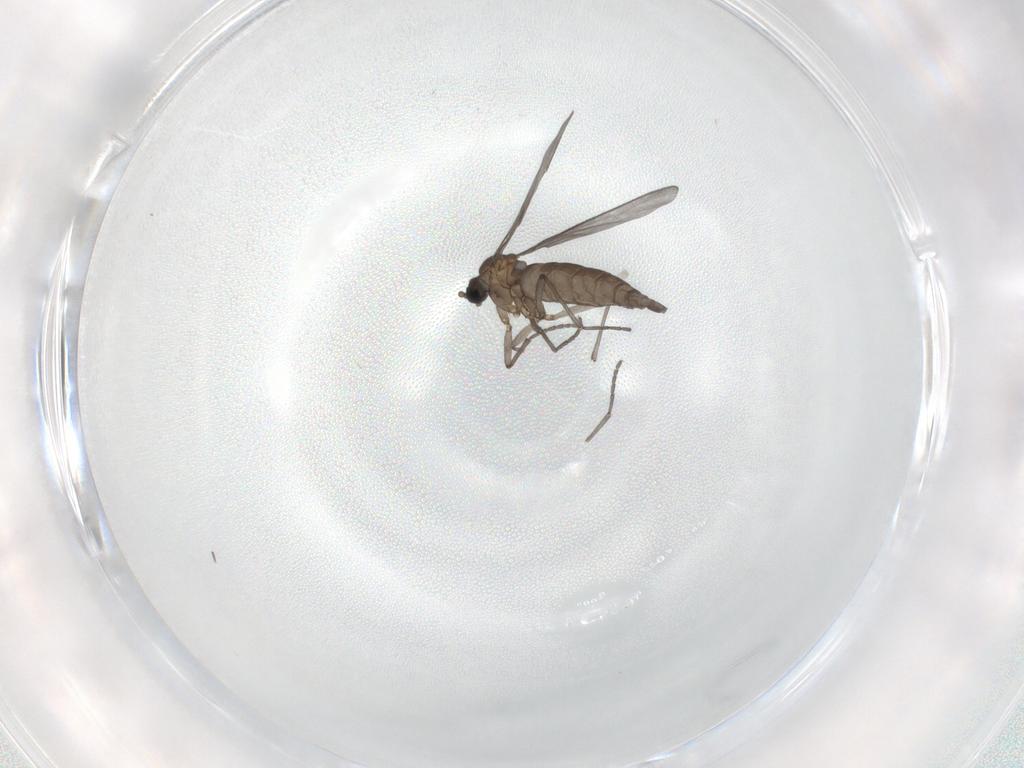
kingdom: Animalia
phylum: Arthropoda
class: Insecta
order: Diptera
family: Sciaridae
